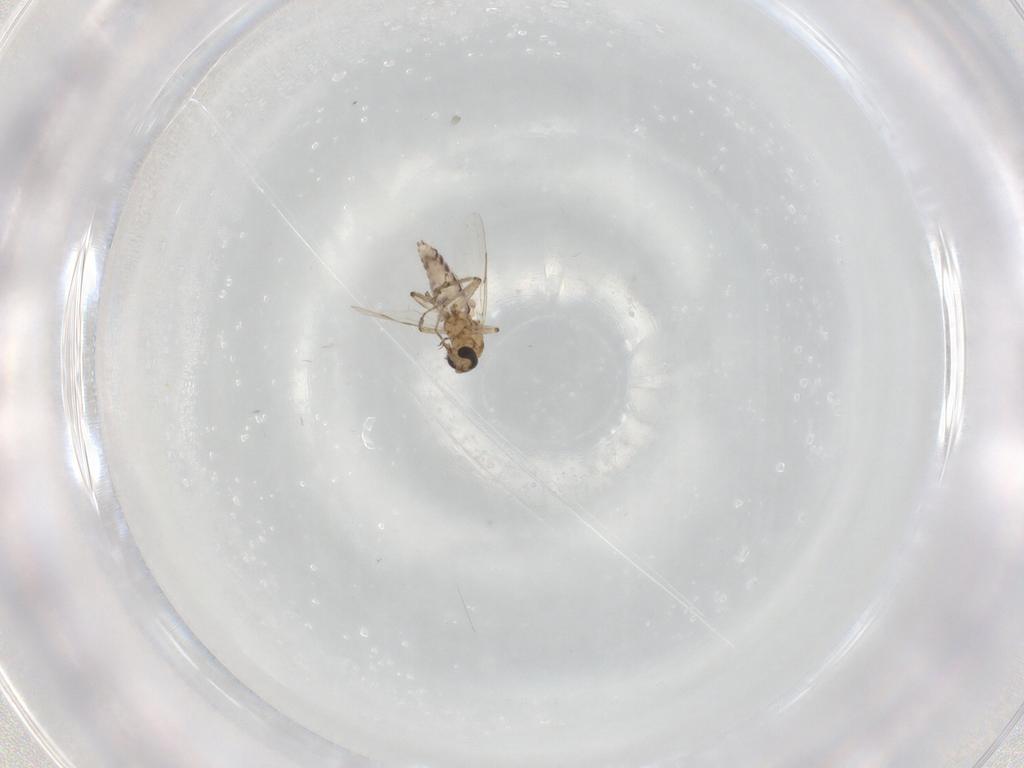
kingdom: Animalia
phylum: Arthropoda
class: Insecta
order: Diptera
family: Ceratopogonidae
